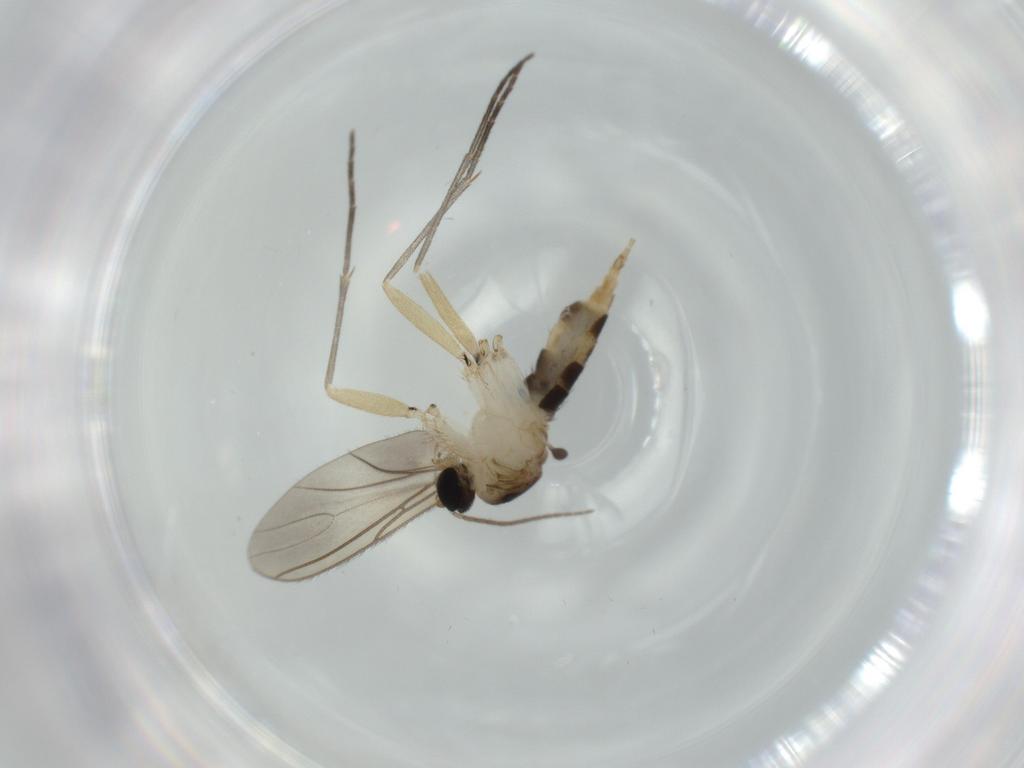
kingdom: Animalia
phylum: Arthropoda
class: Insecta
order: Diptera
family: Sciaridae
